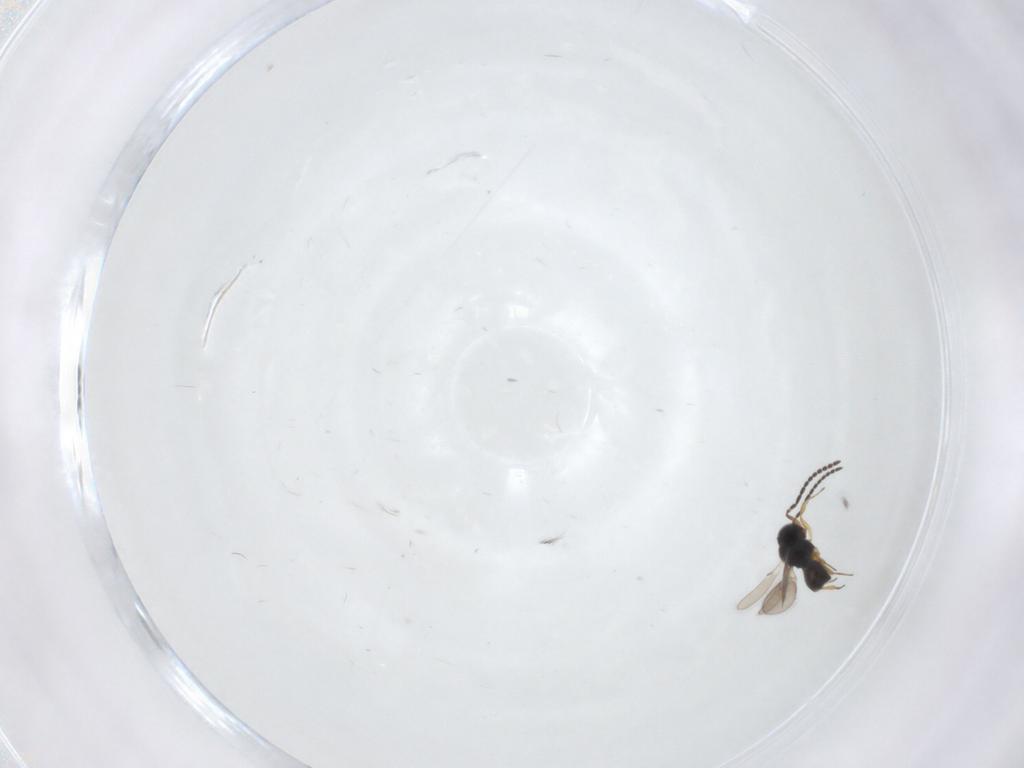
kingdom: Animalia
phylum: Arthropoda
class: Insecta
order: Hymenoptera
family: Scelionidae
